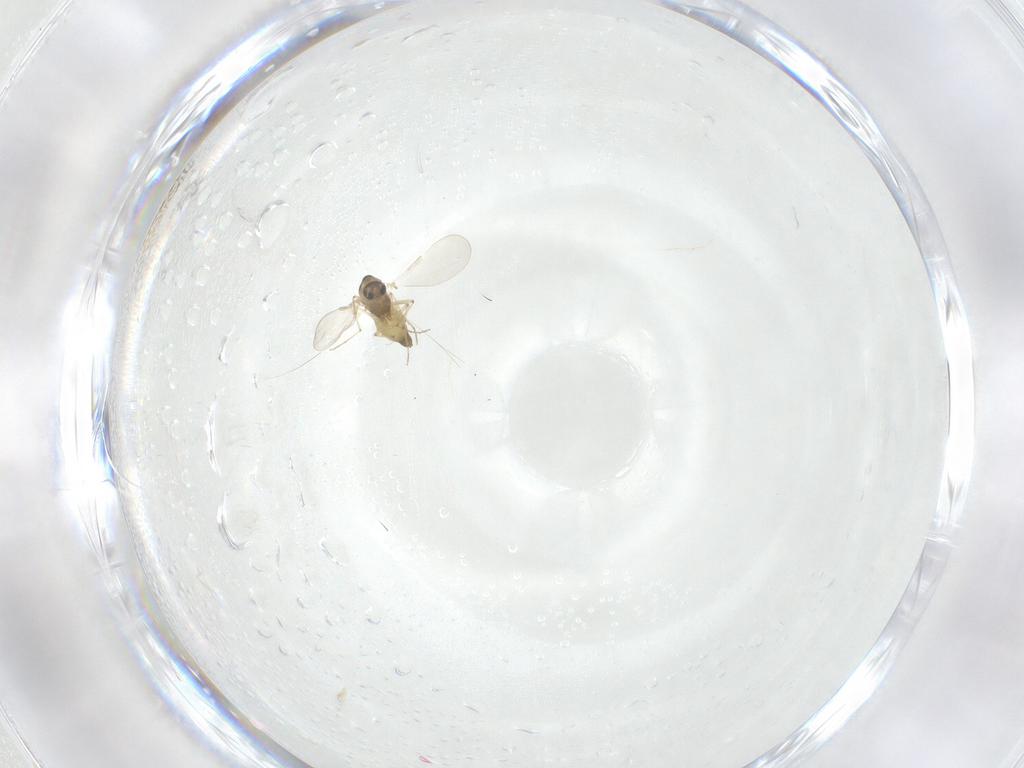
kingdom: Animalia
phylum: Arthropoda
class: Insecta
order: Diptera
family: Chironomidae
